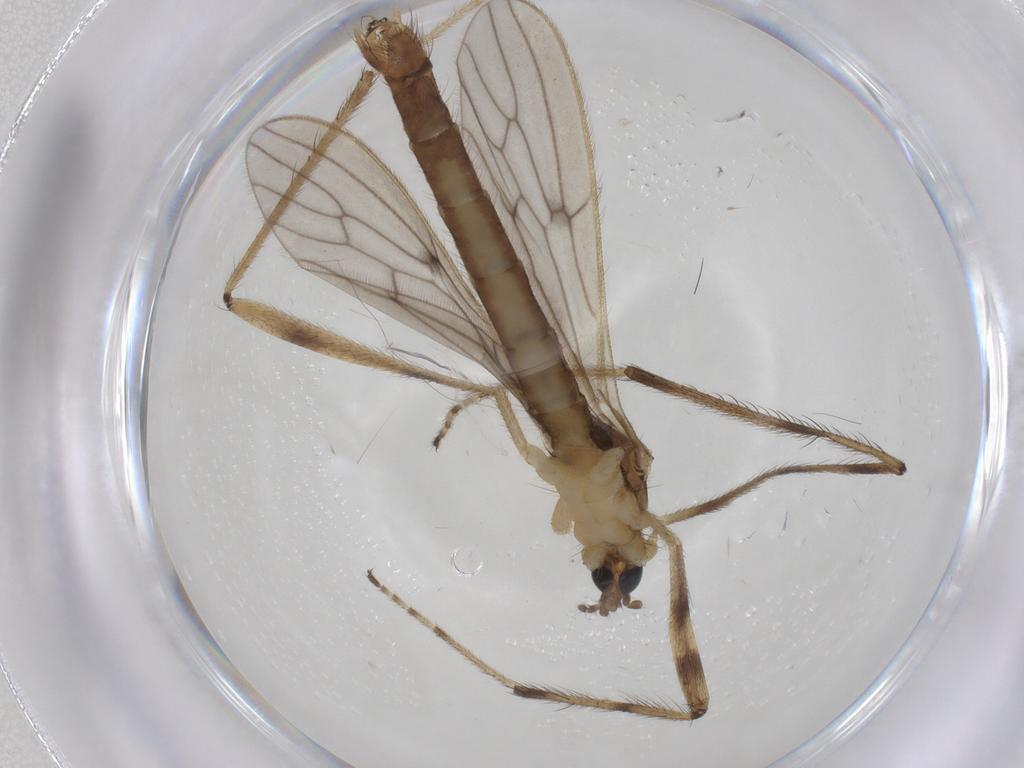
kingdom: Animalia
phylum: Arthropoda
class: Insecta
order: Diptera
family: Limoniidae
